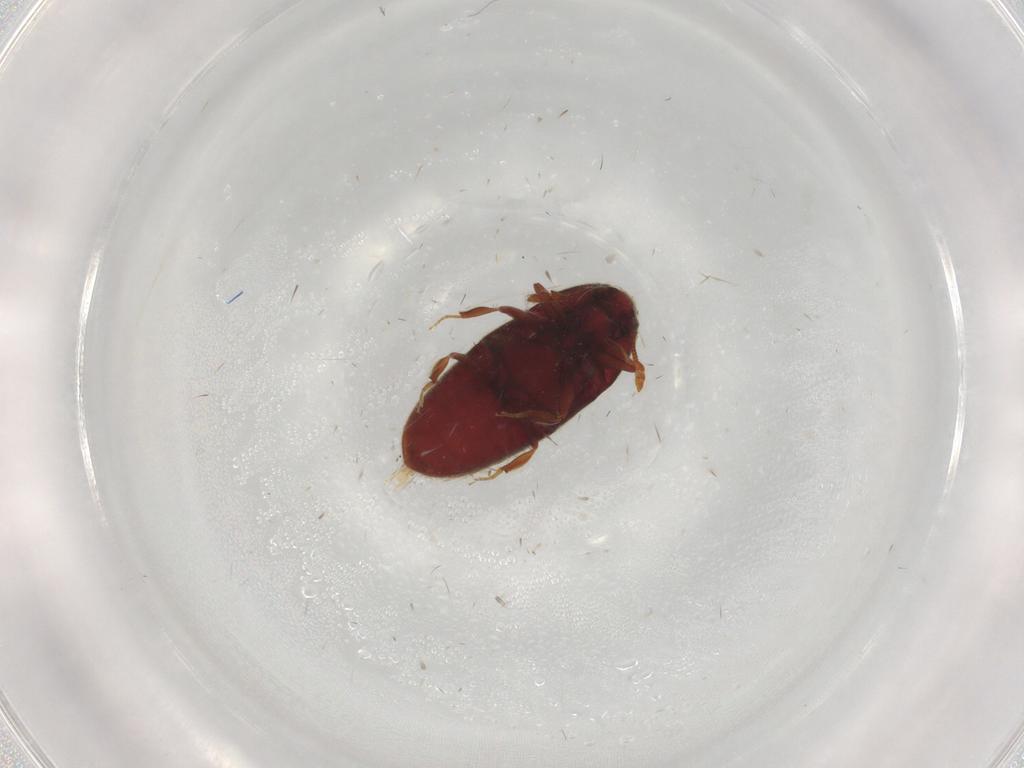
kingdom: Animalia
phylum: Arthropoda
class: Insecta
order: Coleoptera
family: Throscidae
